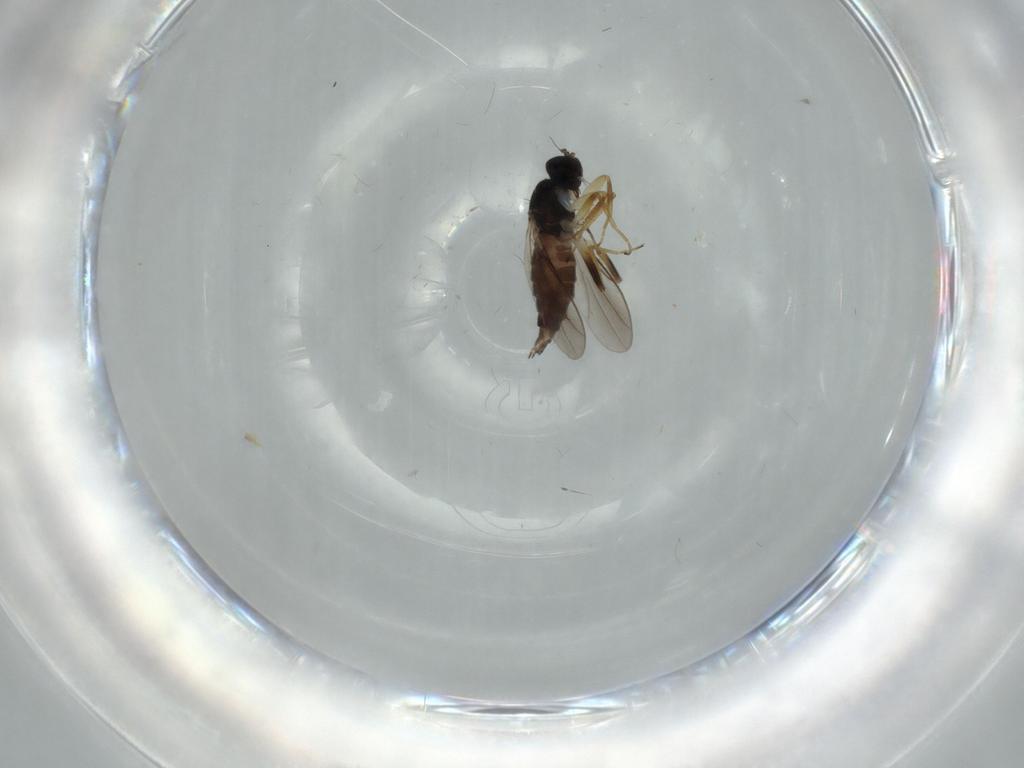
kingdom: Animalia
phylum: Arthropoda
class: Insecta
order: Diptera
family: Hybotidae
